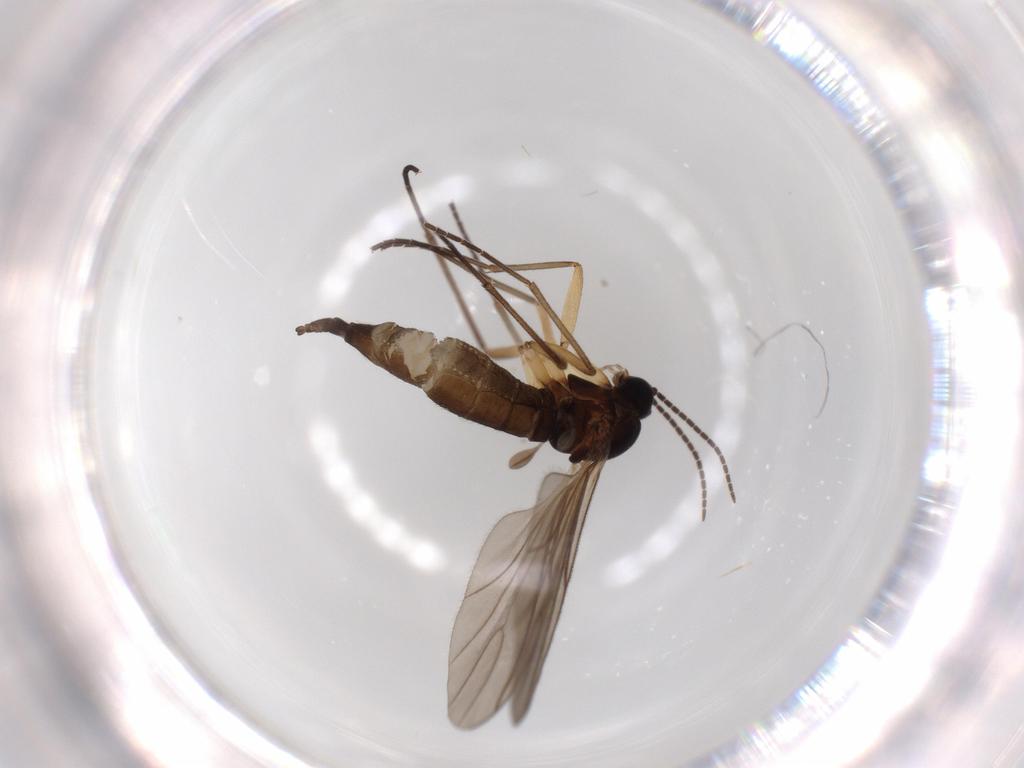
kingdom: Animalia
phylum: Arthropoda
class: Insecta
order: Diptera
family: Sciaridae
